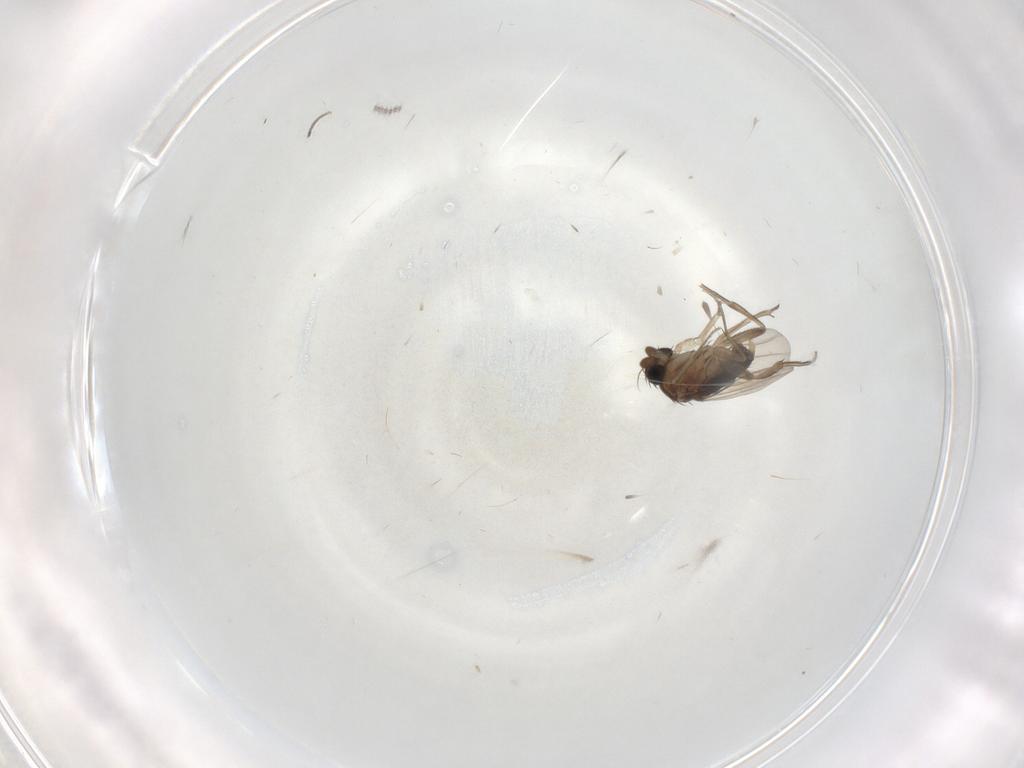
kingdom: Animalia
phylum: Arthropoda
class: Insecta
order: Diptera
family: Phoridae
